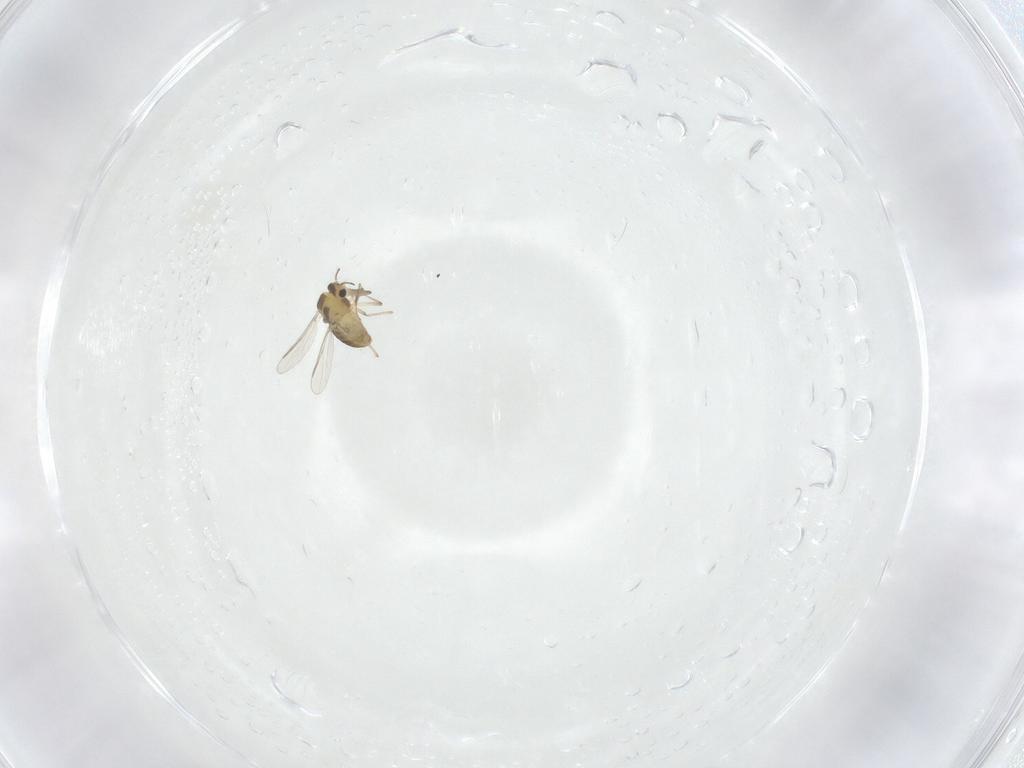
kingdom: Animalia
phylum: Arthropoda
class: Insecta
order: Diptera
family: Chironomidae
